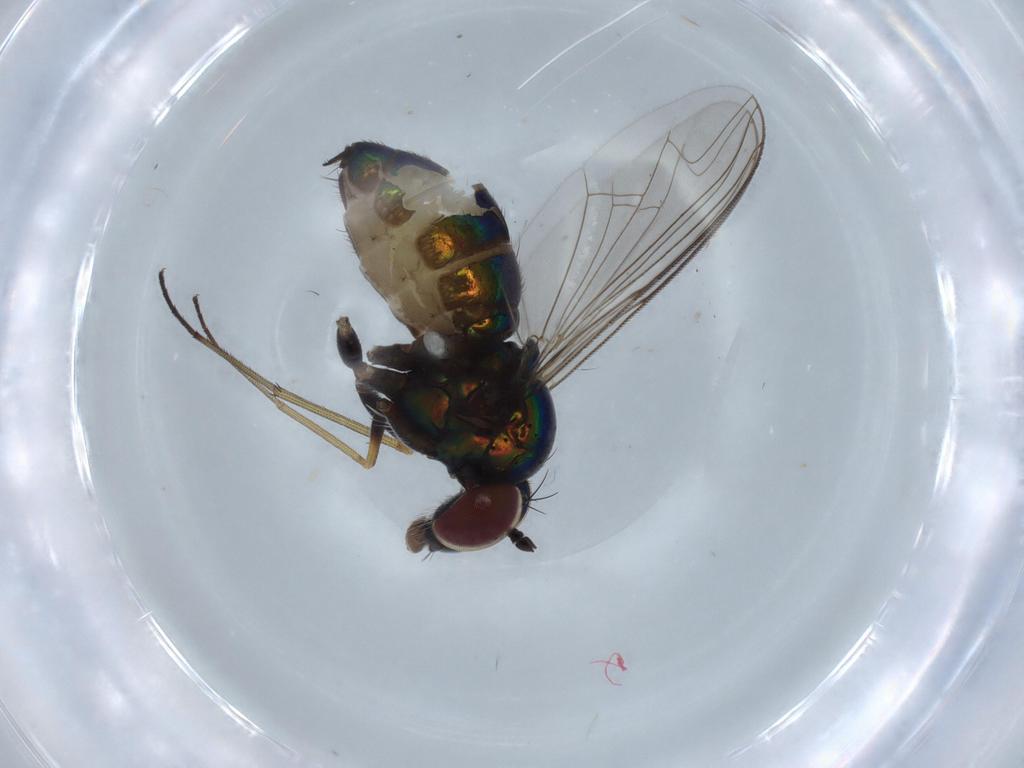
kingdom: Animalia
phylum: Arthropoda
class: Insecta
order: Diptera
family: Dolichopodidae
